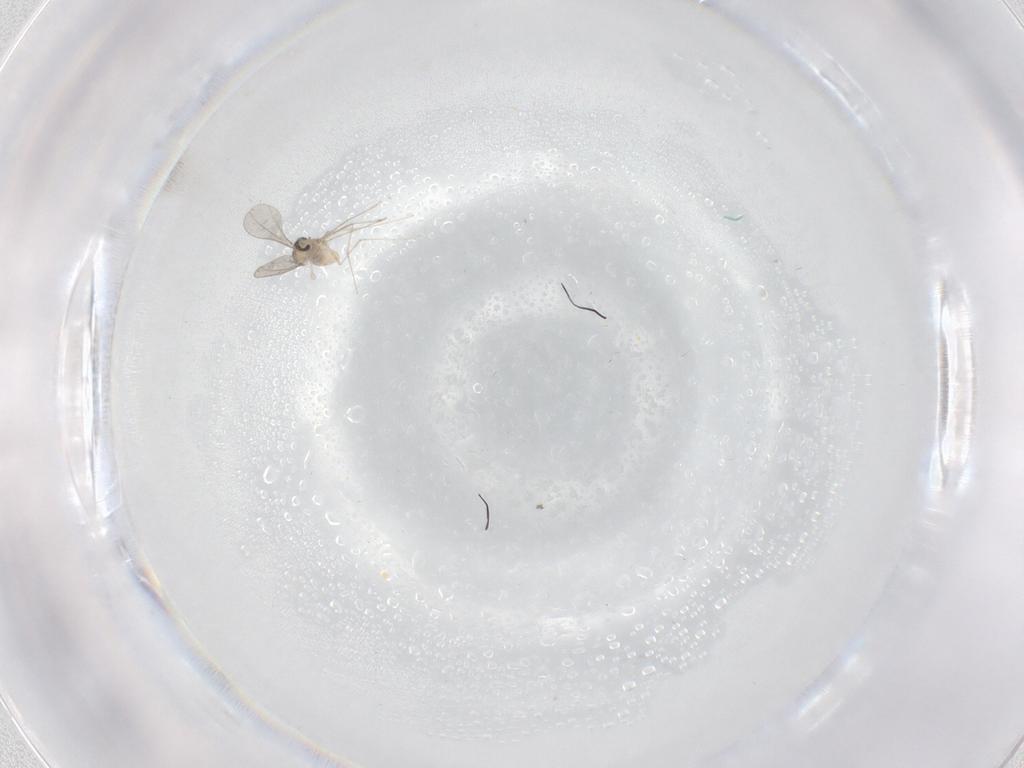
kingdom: Animalia
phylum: Arthropoda
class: Insecta
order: Diptera
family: Cecidomyiidae
